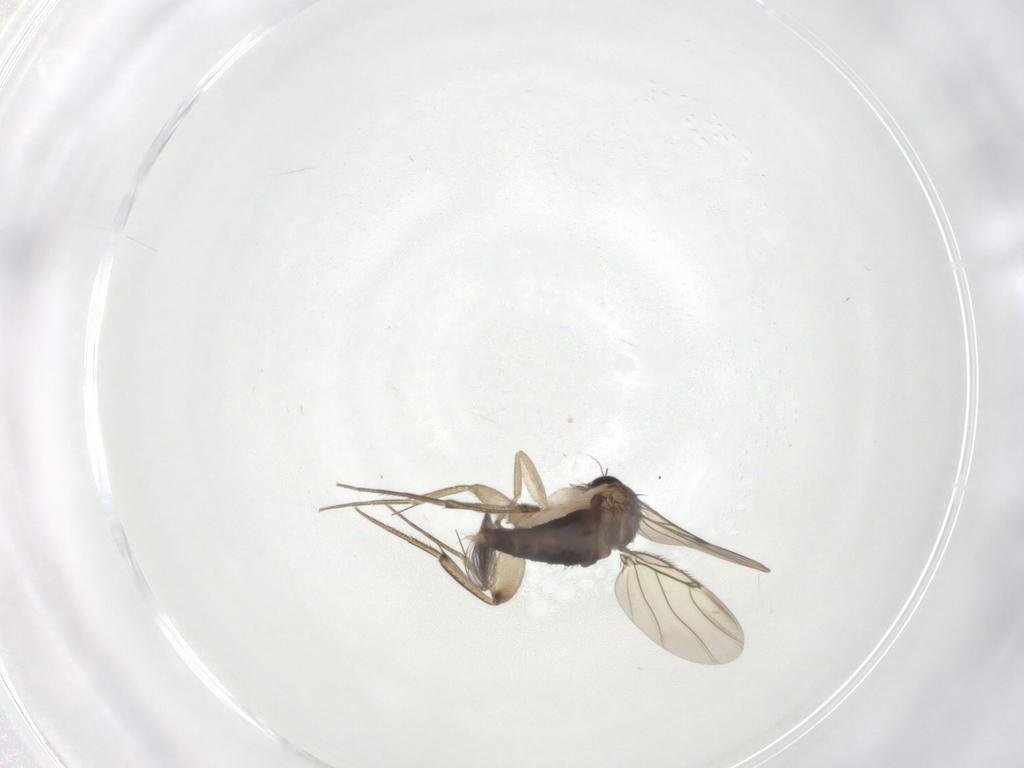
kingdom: Animalia
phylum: Arthropoda
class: Insecta
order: Diptera
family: Phoridae
